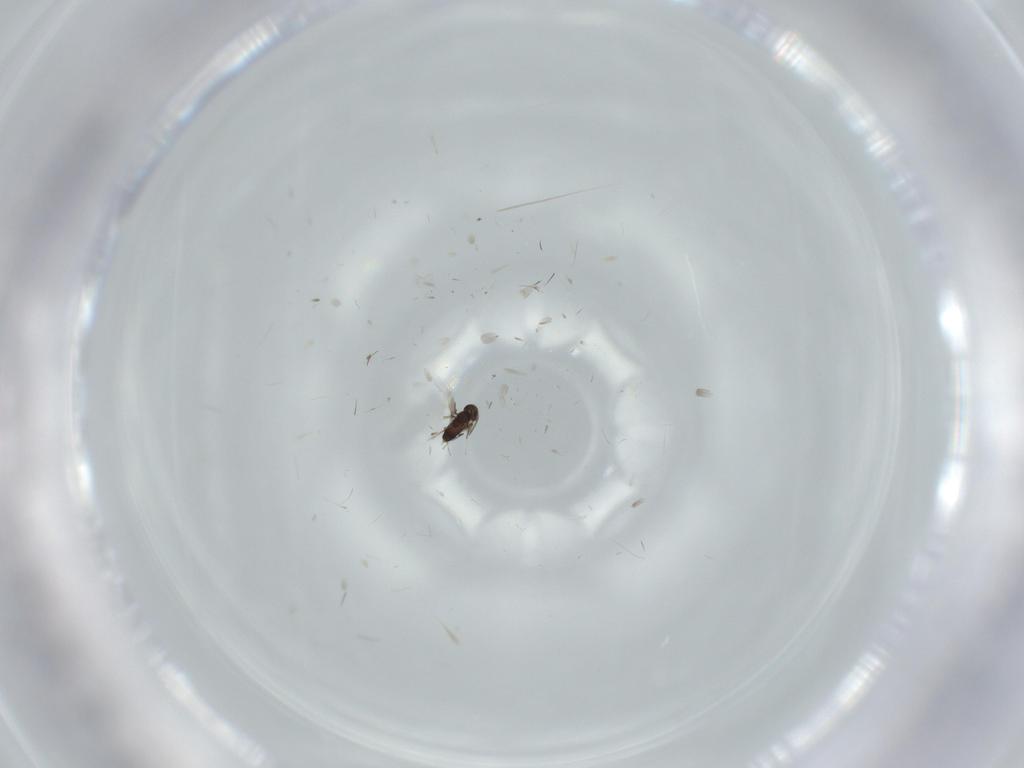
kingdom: Animalia
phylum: Arthropoda
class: Insecta
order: Hymenoptera
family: Signiphoridae
